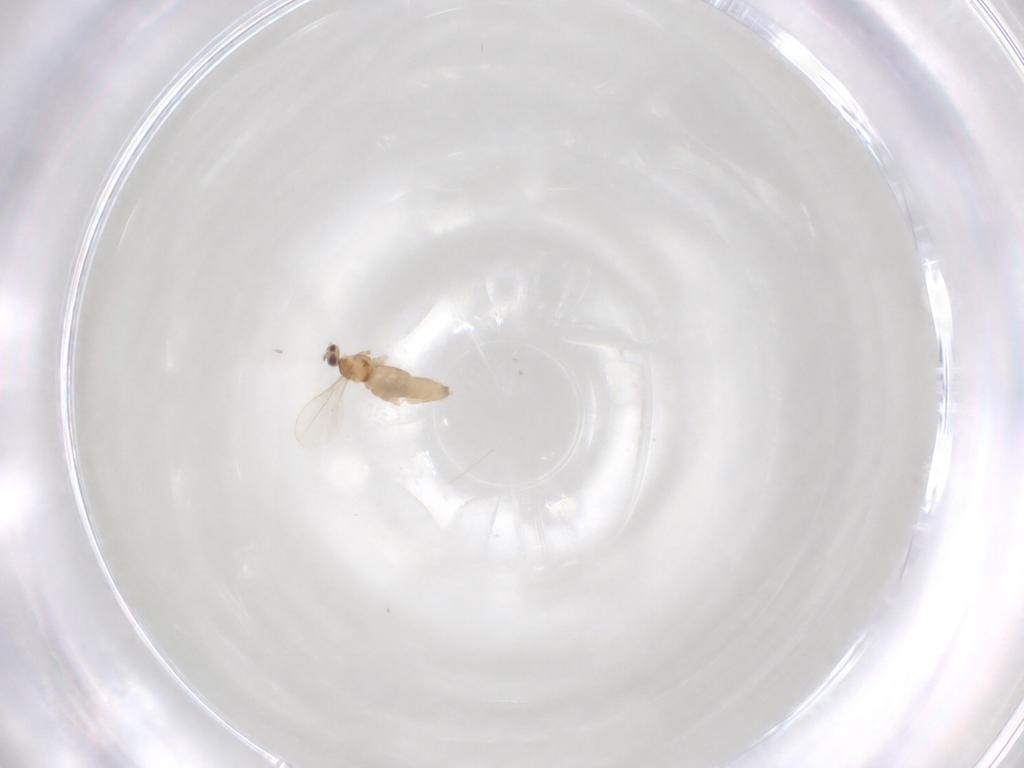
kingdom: Animalia
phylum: Arthropoda
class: Insecta
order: Diptera
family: Cecidomyiidae
